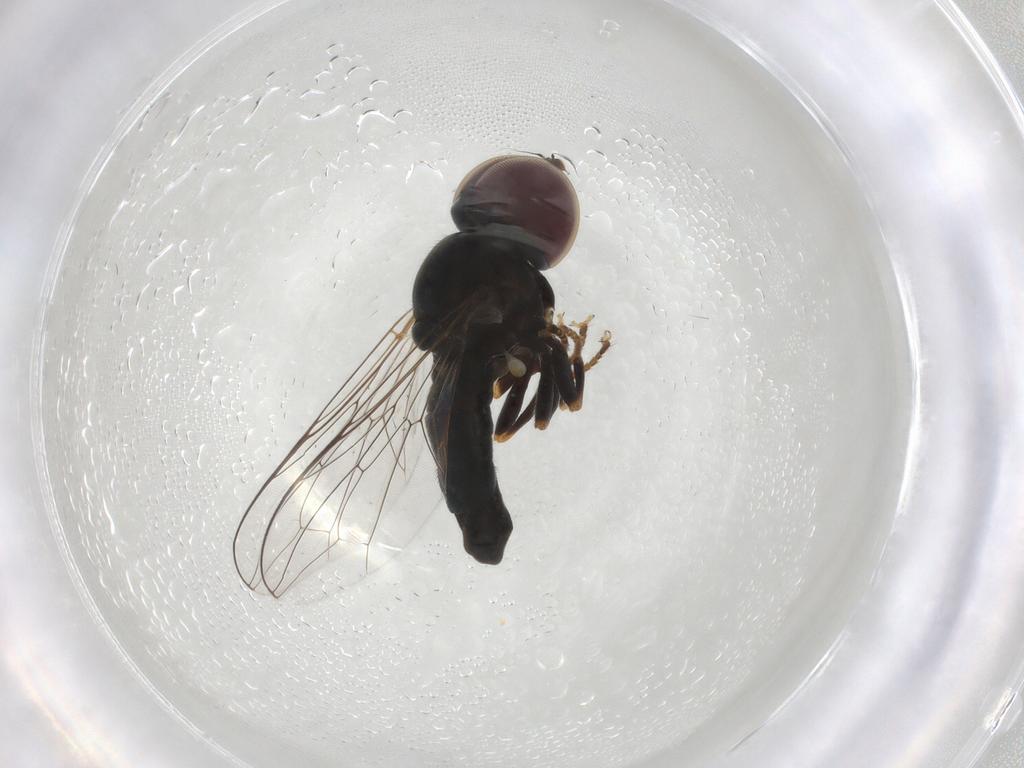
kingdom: Animalia
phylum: Arthropoda
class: Insecta
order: Diptera
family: Pipunculidae
